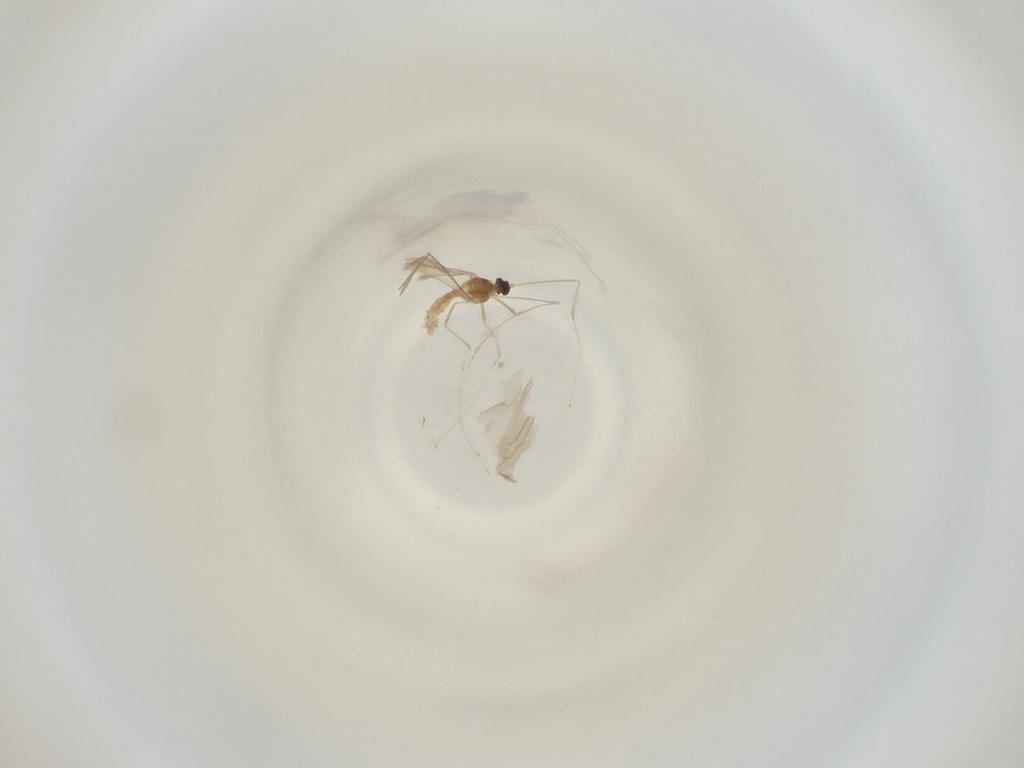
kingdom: Animalia
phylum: Arthropoda
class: Insecta
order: Diptera
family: Cecidomyiidae
